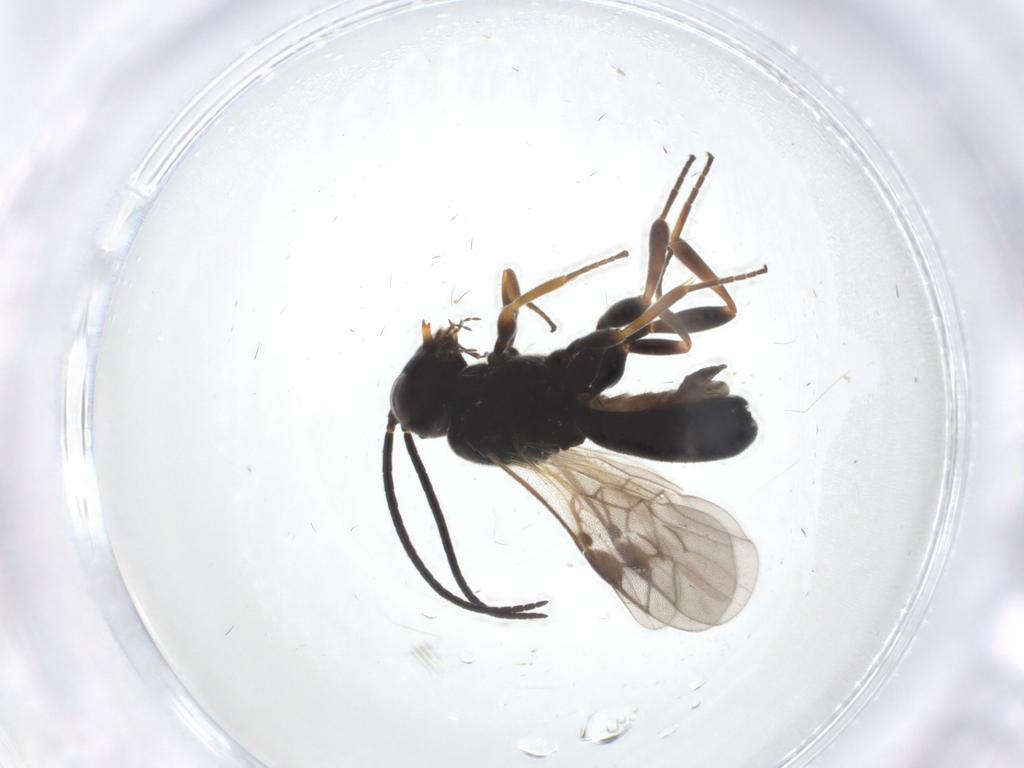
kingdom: Animalia
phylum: Arthropoda
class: Insecta
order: Hymenoptera
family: Braconidae
